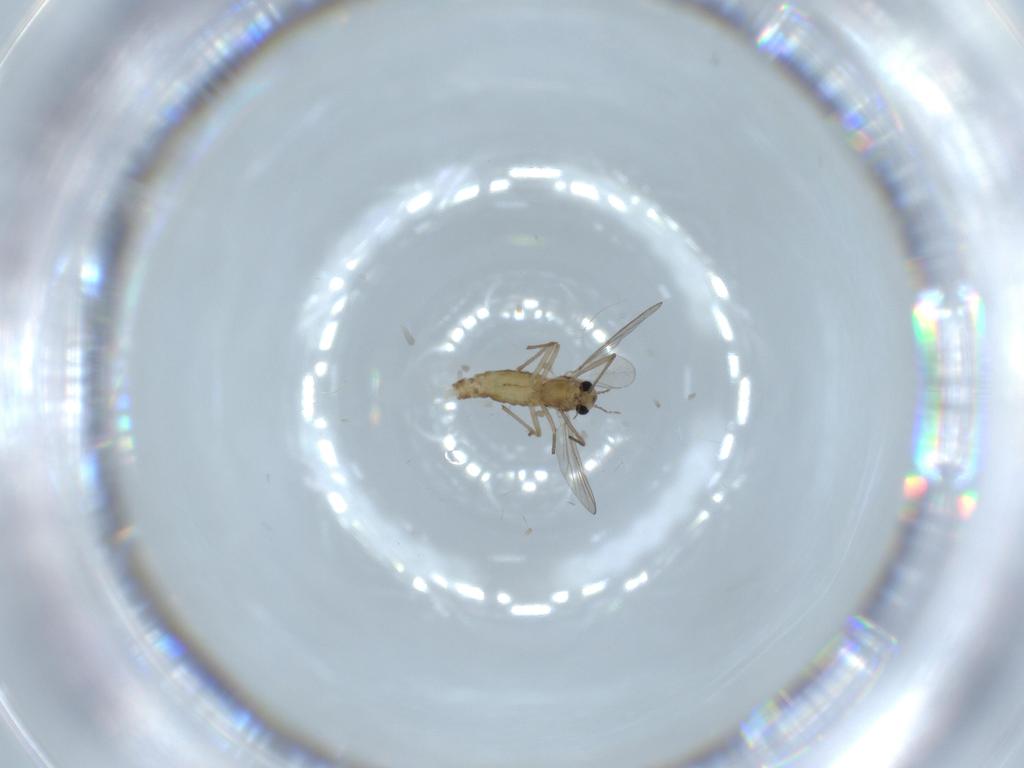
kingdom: Animalia
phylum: Arthropoda
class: Insecta
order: Diptera
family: Chironomidae
